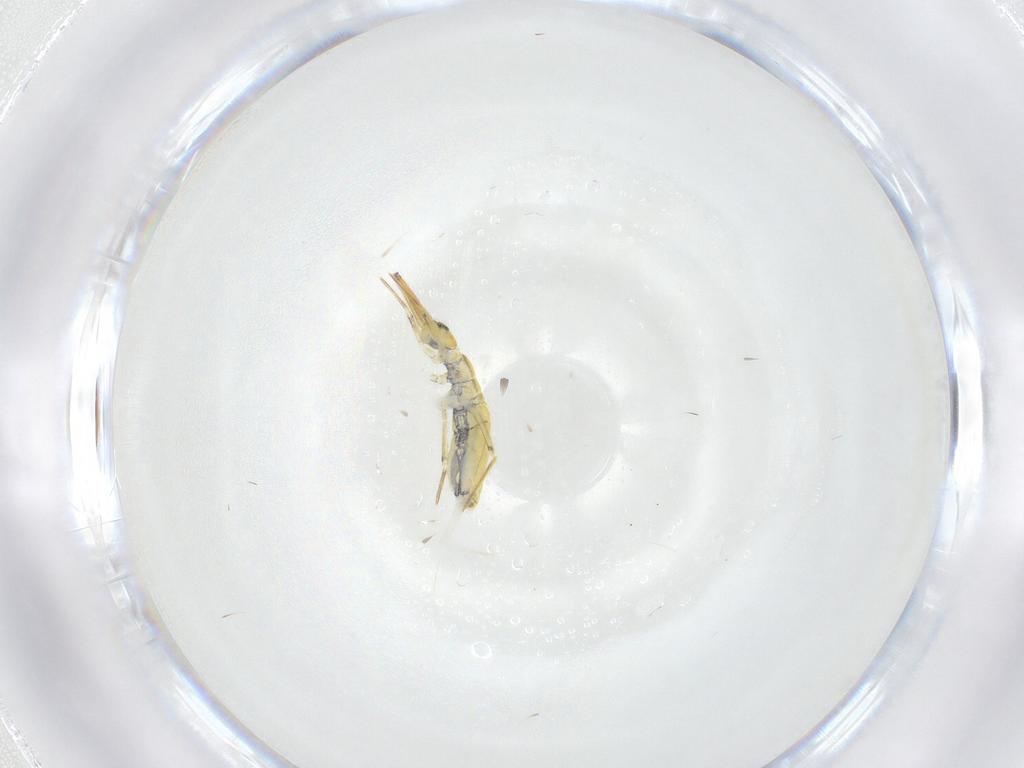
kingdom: Animalia
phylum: Arthropoda
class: Collembola
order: Entomobryomorpha
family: Paronellidae
